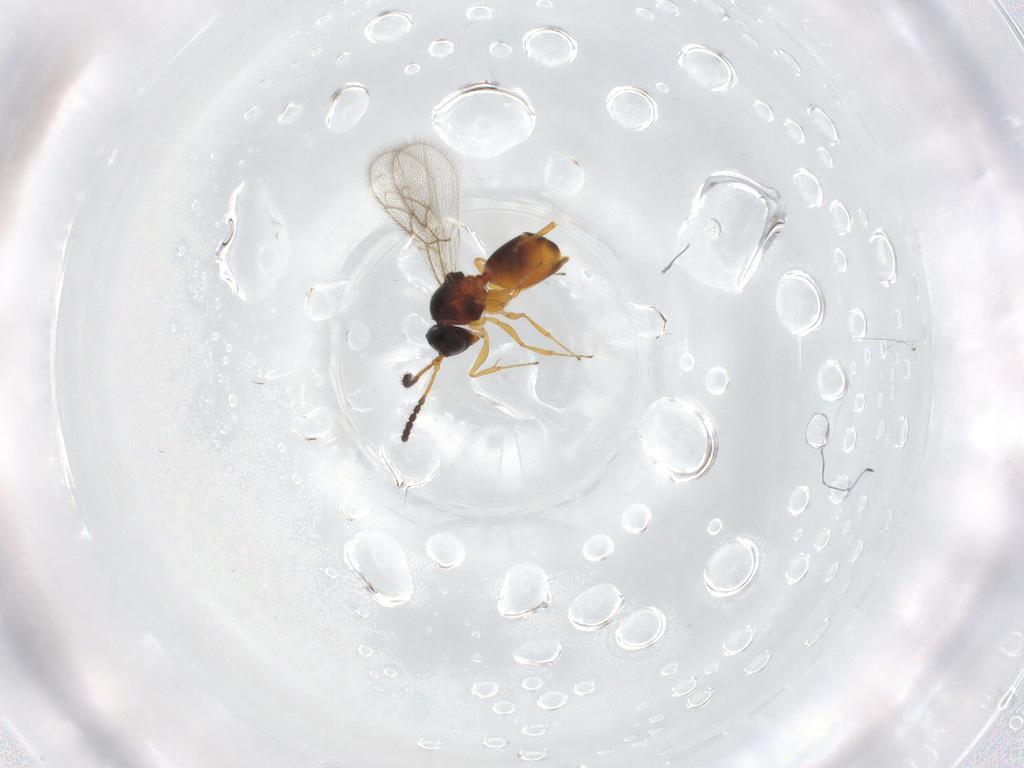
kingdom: Animalia
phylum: Arthropoda
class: Insecta
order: Hymenoptera
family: Figitidae
